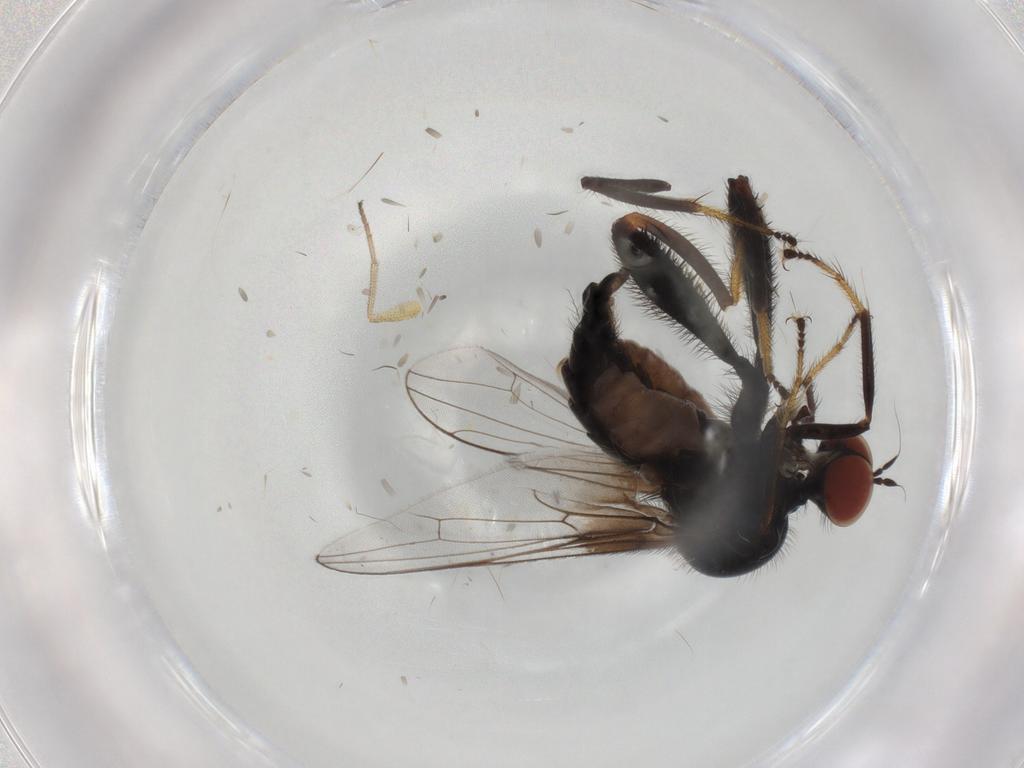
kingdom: Animalia
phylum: Arthropoda
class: Insecta
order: Diptera
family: Hybotidae
